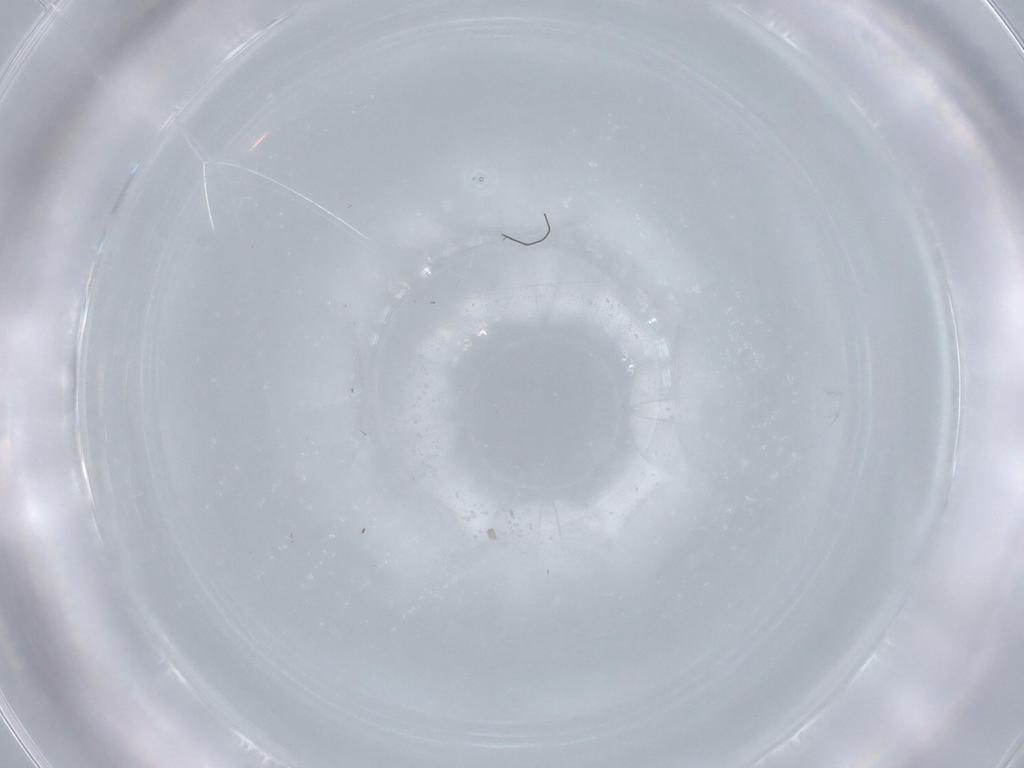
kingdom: Animalia
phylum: Arthropoda
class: Insecta
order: Diptera
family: Cecidomyiidae
